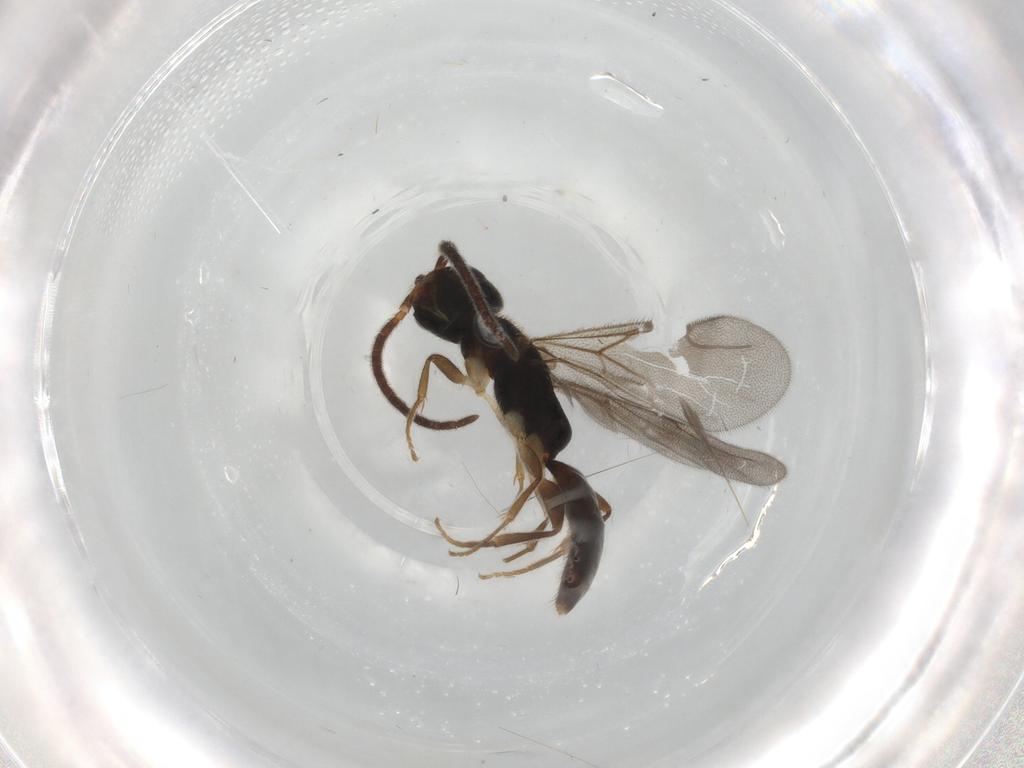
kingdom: Animalia
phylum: Arthropoda
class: Insecta
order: Hymenoptera
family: Bethylidae
